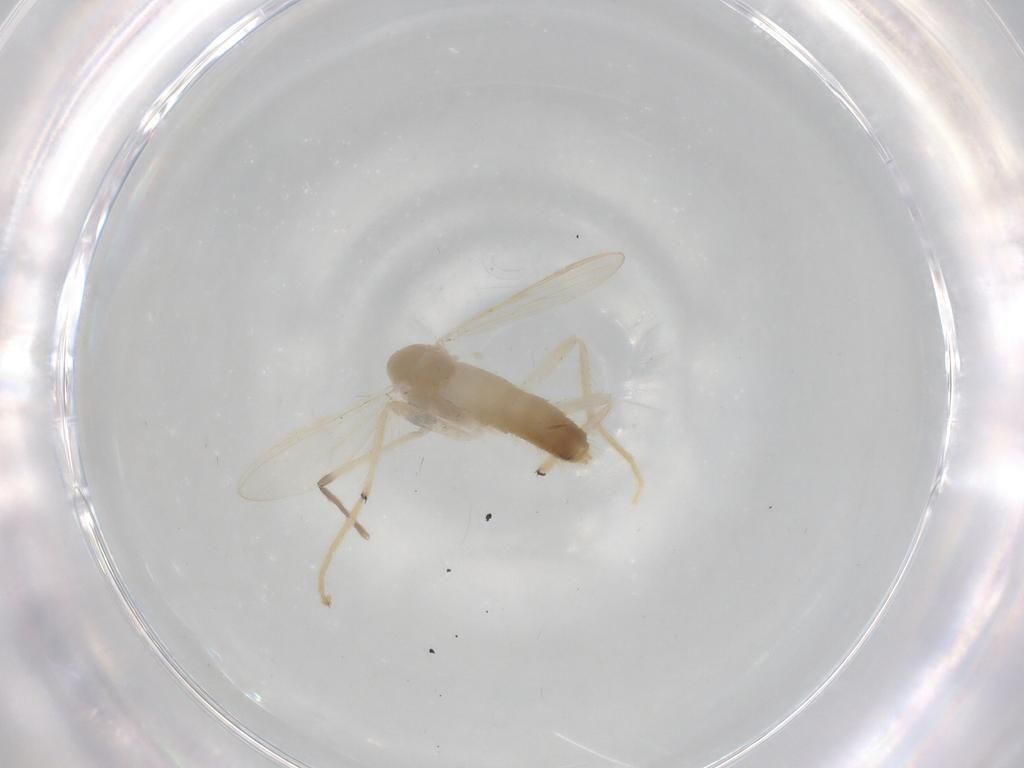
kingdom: Animalia
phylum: Arthropoda
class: Insecta
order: Diptera
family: Chironomidae
